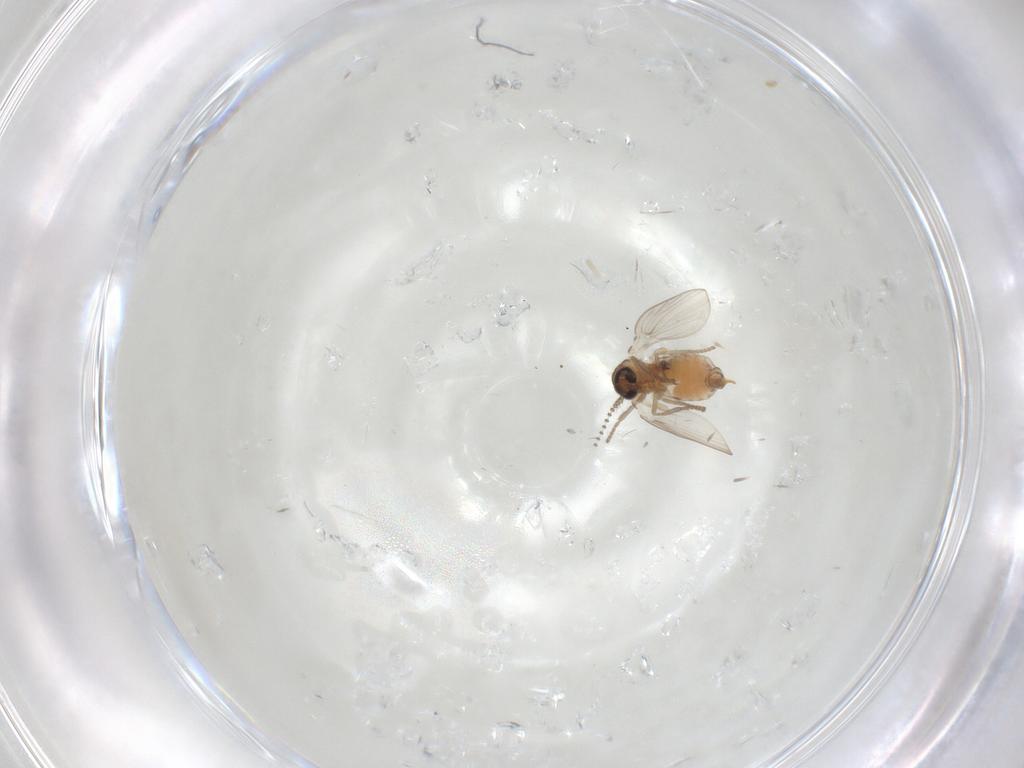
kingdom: Animalia
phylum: Arthropoda
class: Insecta
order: Diptera
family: Psychodidae
